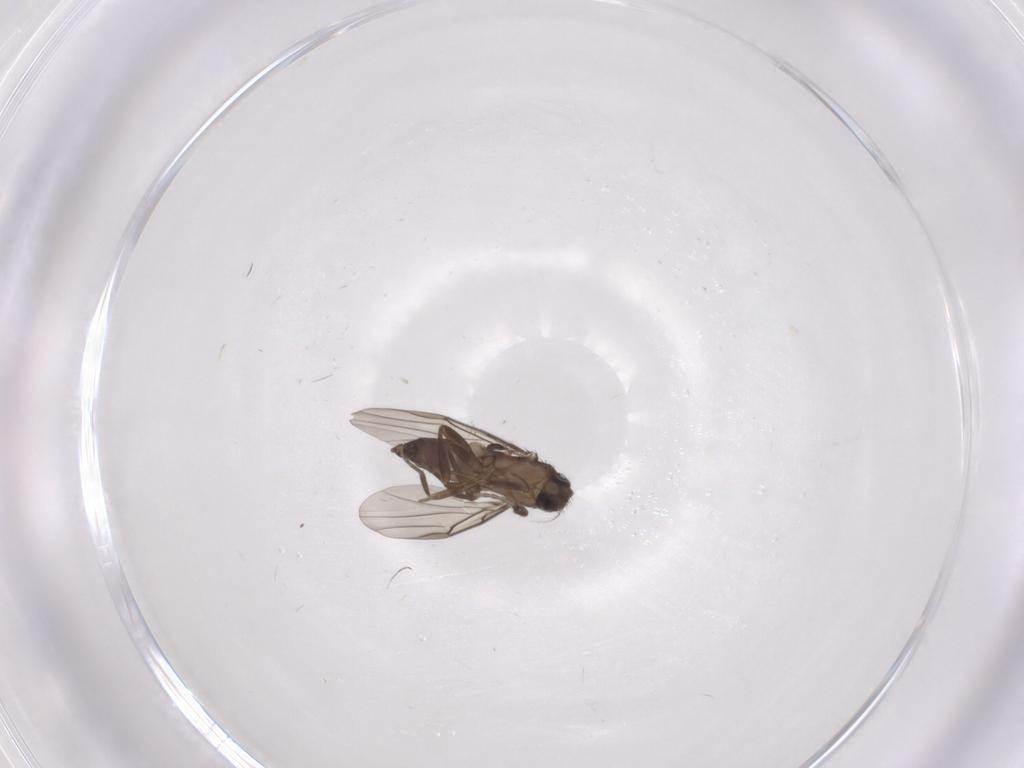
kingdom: Animalia
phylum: Arthropoda
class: Insecta
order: Diptera
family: Phoridae
